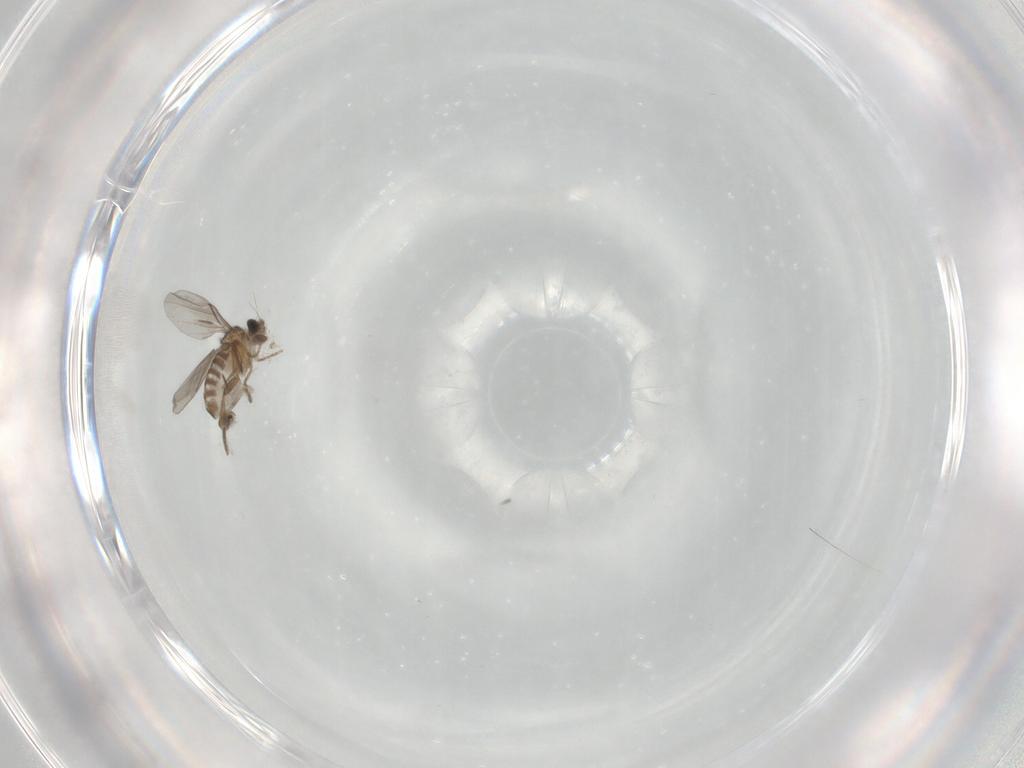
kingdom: Animalia
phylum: Arthropoda
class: Insecta
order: Diptera
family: Chironomidae
